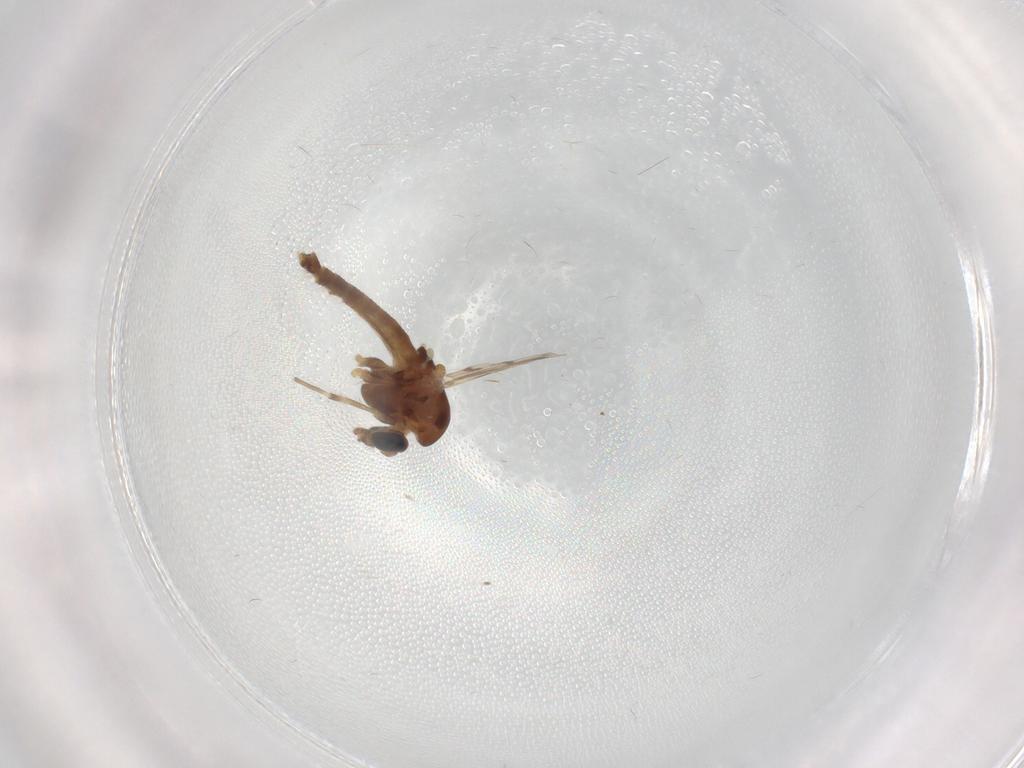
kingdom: Animalia
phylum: Arthropoda
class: Insecta
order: Diptera
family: Chironomidae
